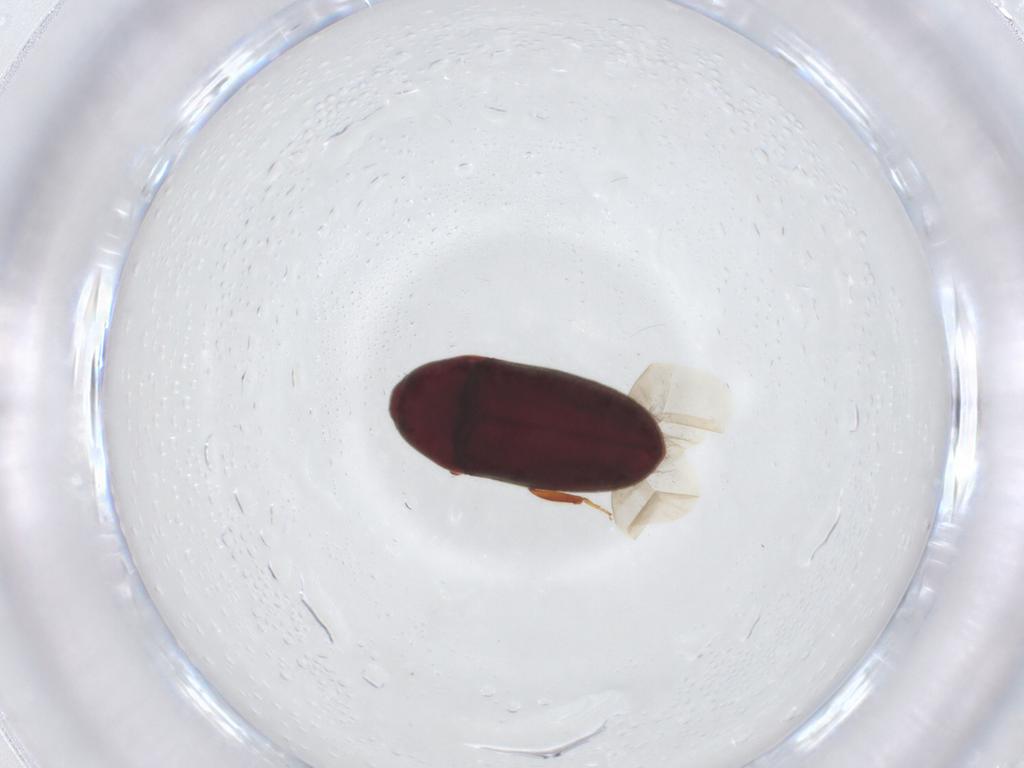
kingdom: Animalia
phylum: Arthropoda
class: Insecta
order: Coleoptera
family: Throscidae
